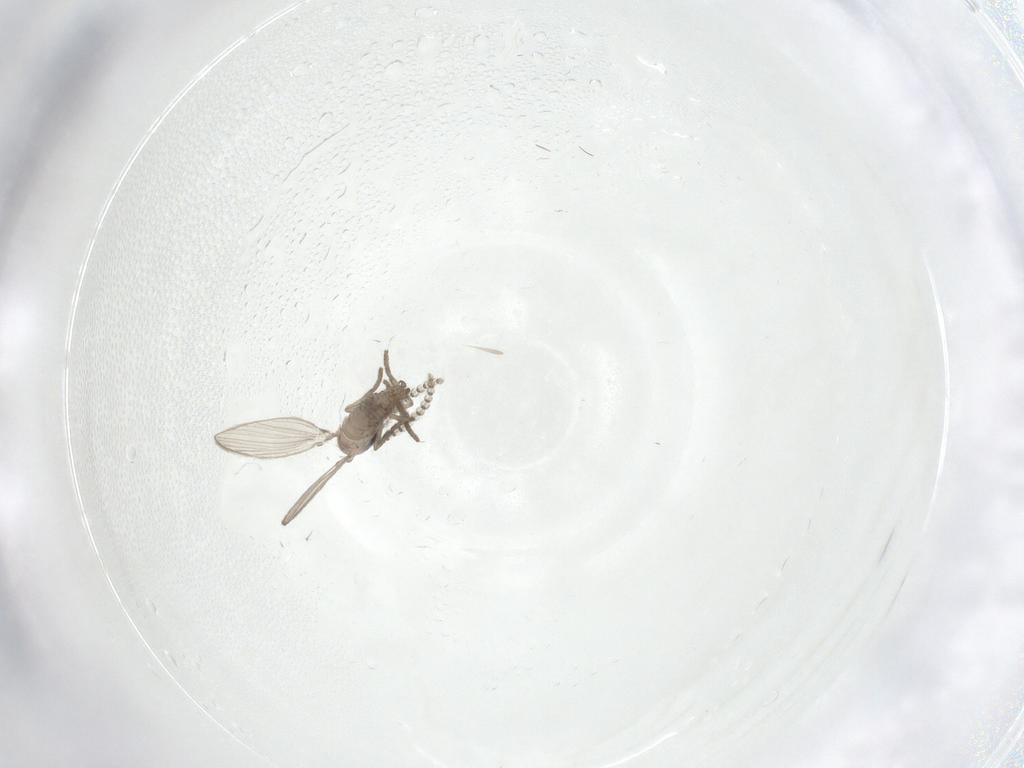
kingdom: Animalia
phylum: Arthropoda
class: Insecta
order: Diptera
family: Psychodidae
